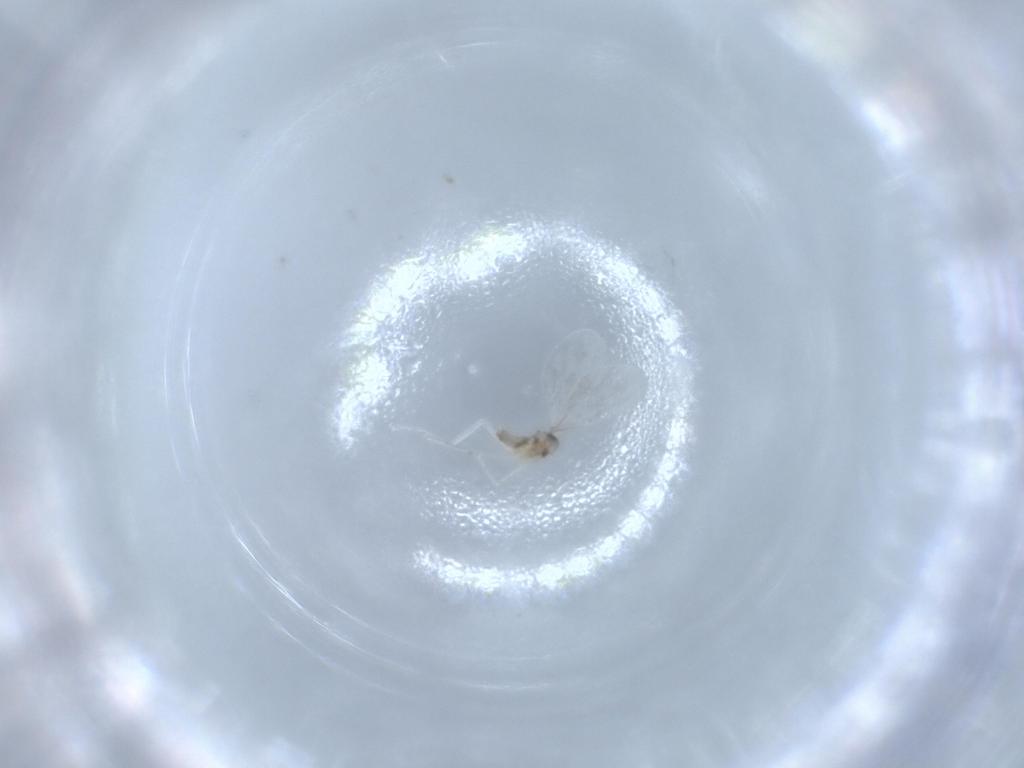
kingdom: Animalia
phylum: Arthropoda
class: Insecta
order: Diptera
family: Cecidomyiidae
